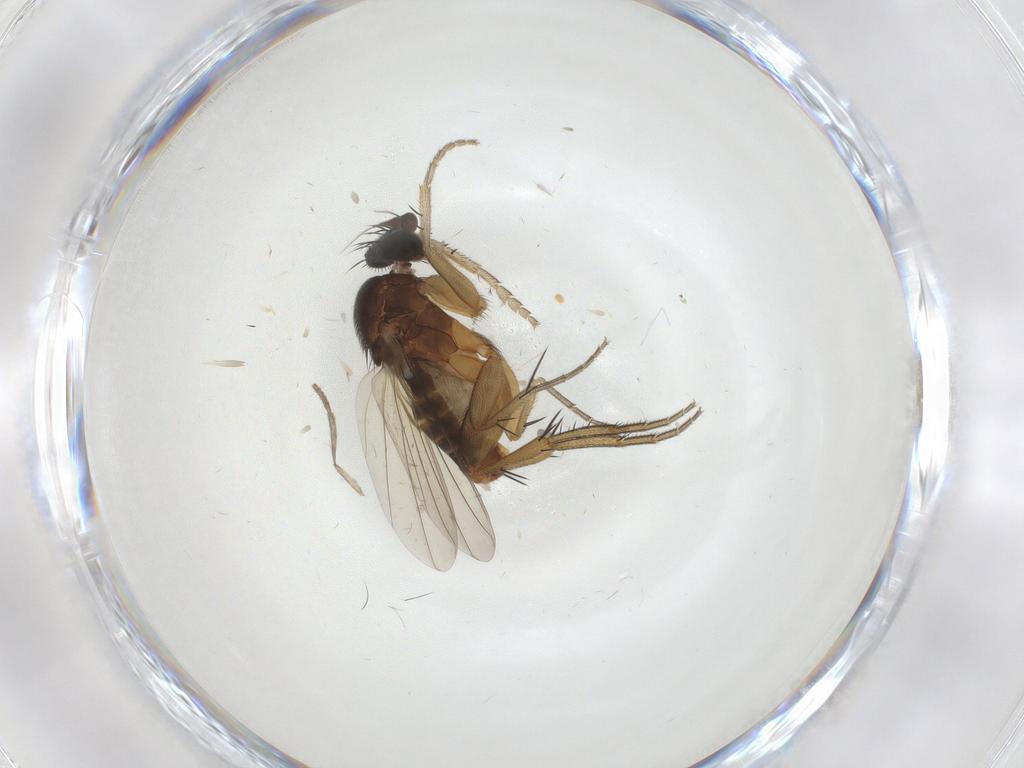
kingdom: Animalia
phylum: Arthropoda
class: Insecta
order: Diptera
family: Phoridae
